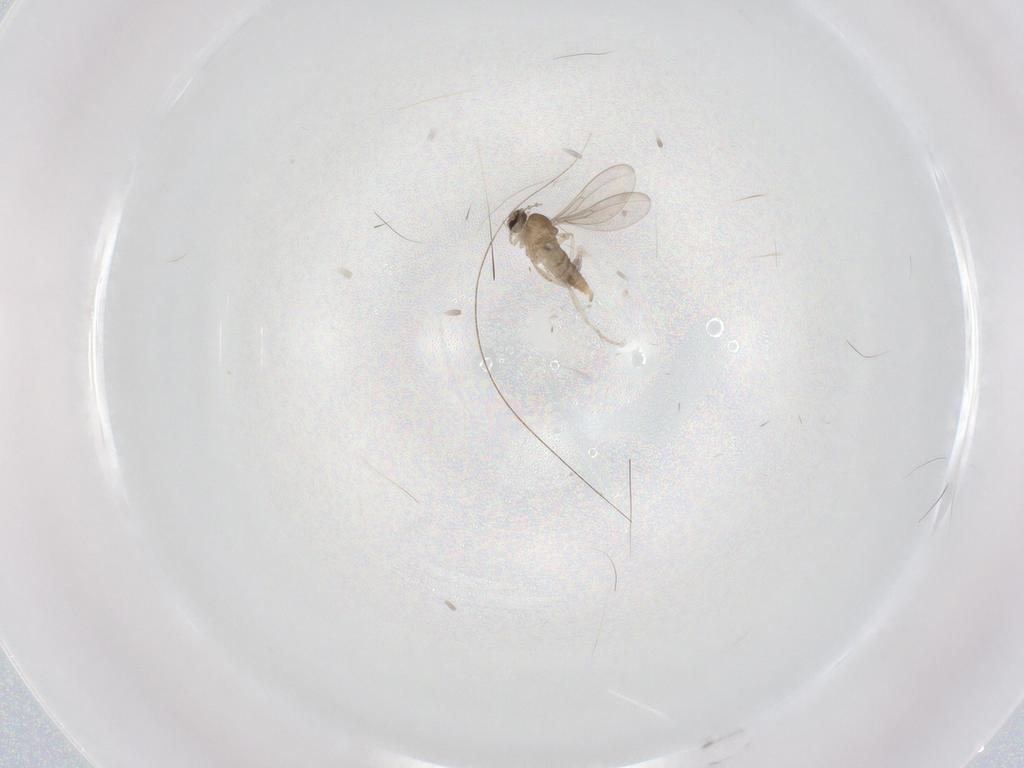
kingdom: Animalia
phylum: Arthropoda
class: Insecta
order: Diptera
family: Cecidomyiidae
